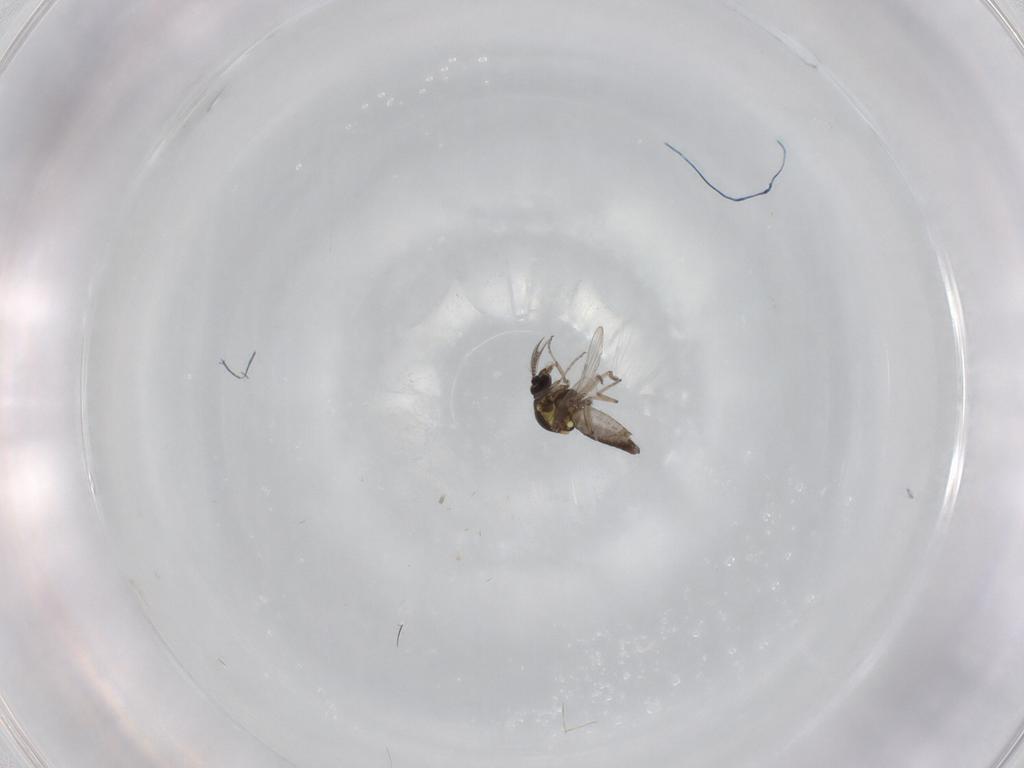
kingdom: Animalia
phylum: Arthropoda
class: Insecta
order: Diptera
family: Ceratopogonidae
